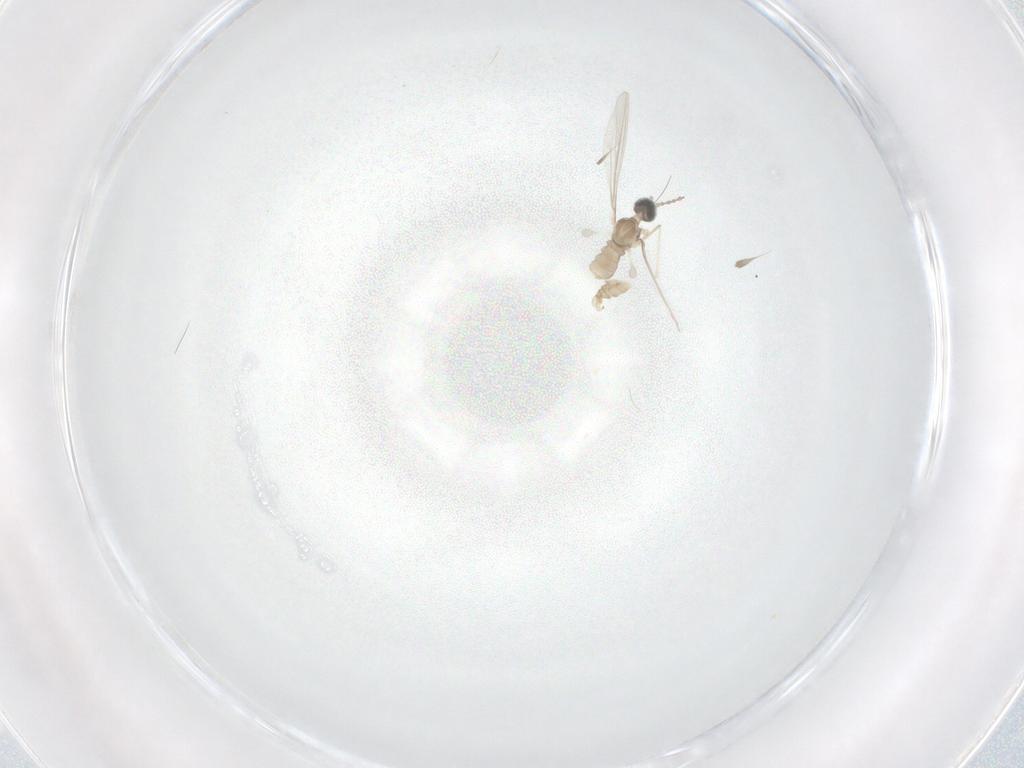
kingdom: Animalia
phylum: Arthropoda
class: Insecta
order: Diptera
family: Cecidomyiidae
